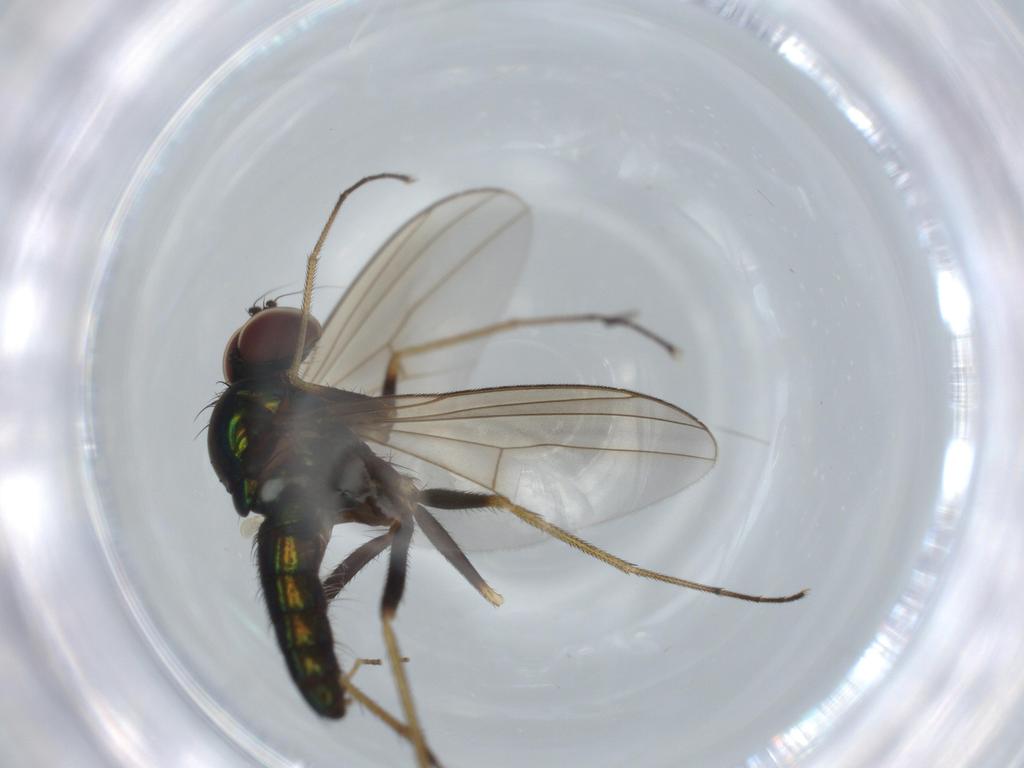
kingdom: Animalia
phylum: Arthropoda
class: Insecta
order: Diptera
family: Dolichopodidae
